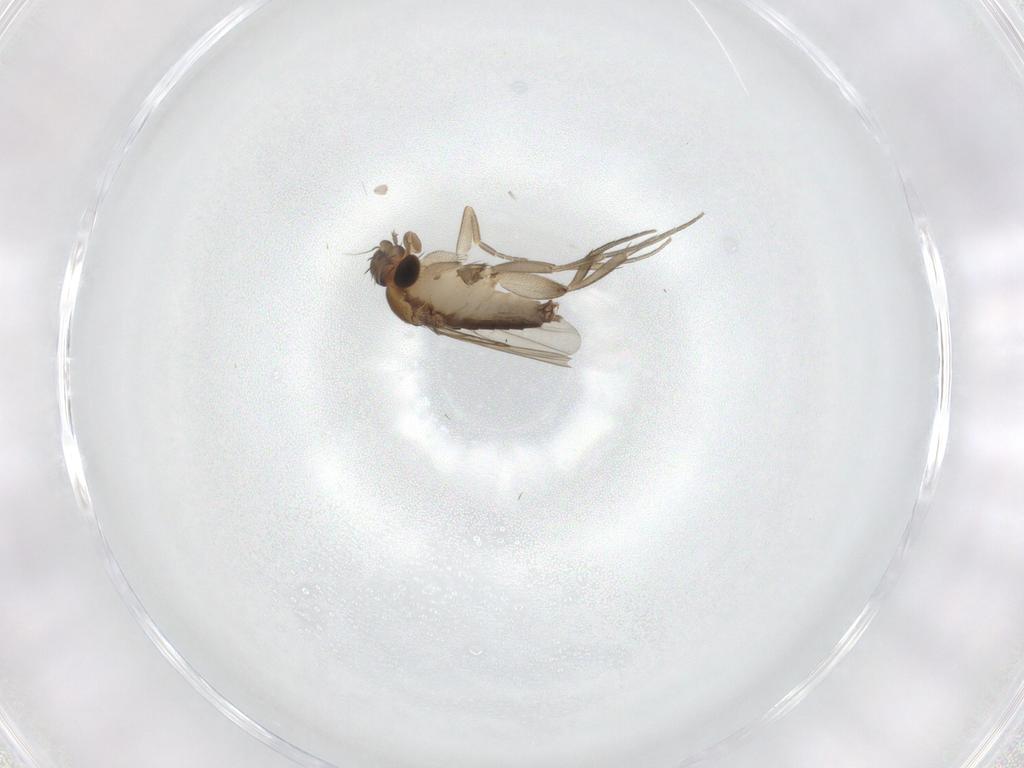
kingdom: Animalia
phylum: Arthropoda
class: Insecta
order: Diptera
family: Phoridae
